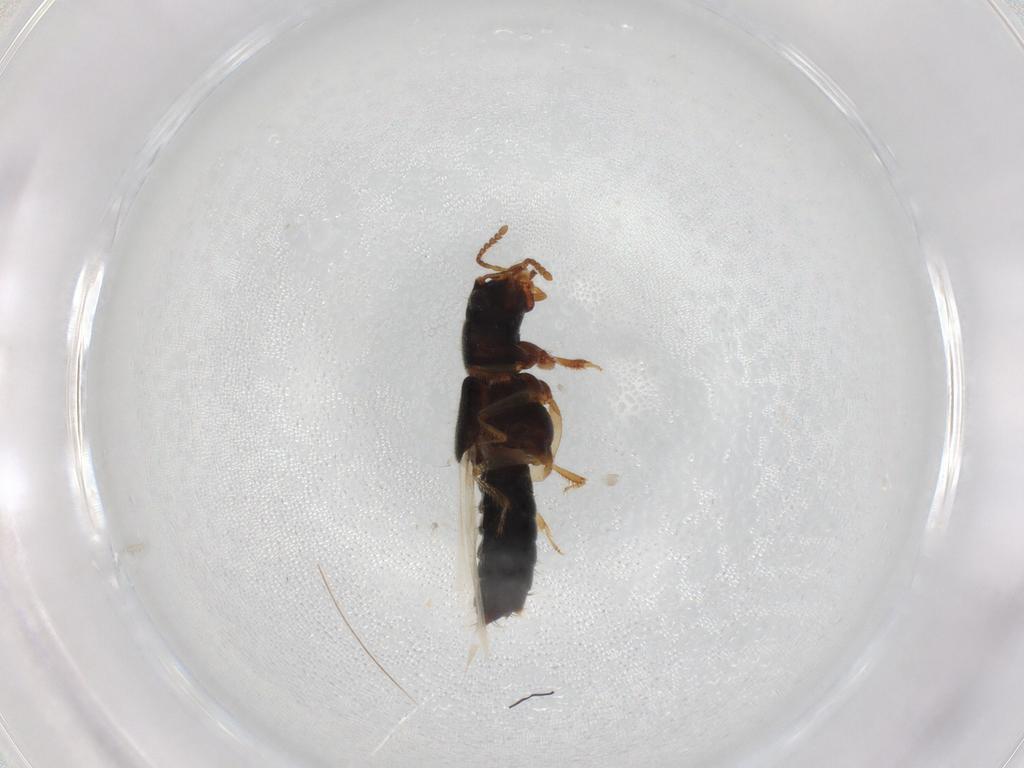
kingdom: Animalia
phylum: Arthropoda
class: Insecta
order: Coleoptera
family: Staphylinidae
